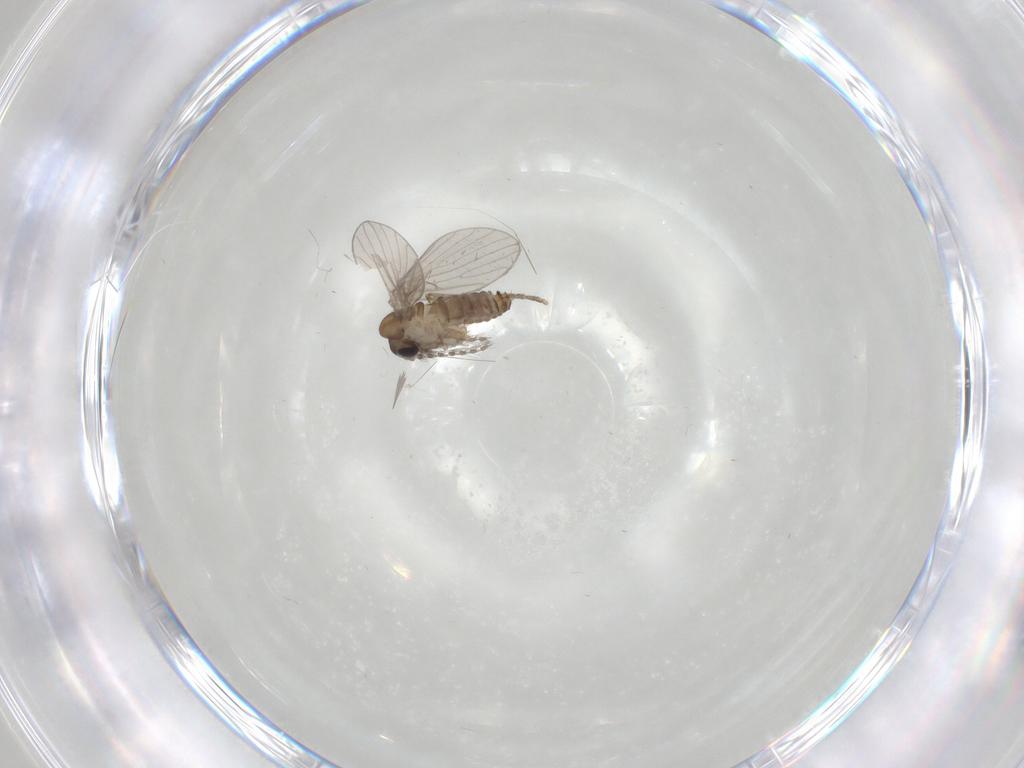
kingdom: Animalia
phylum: Arthropoda
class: Insecta
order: Diptera
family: Psychodidae
